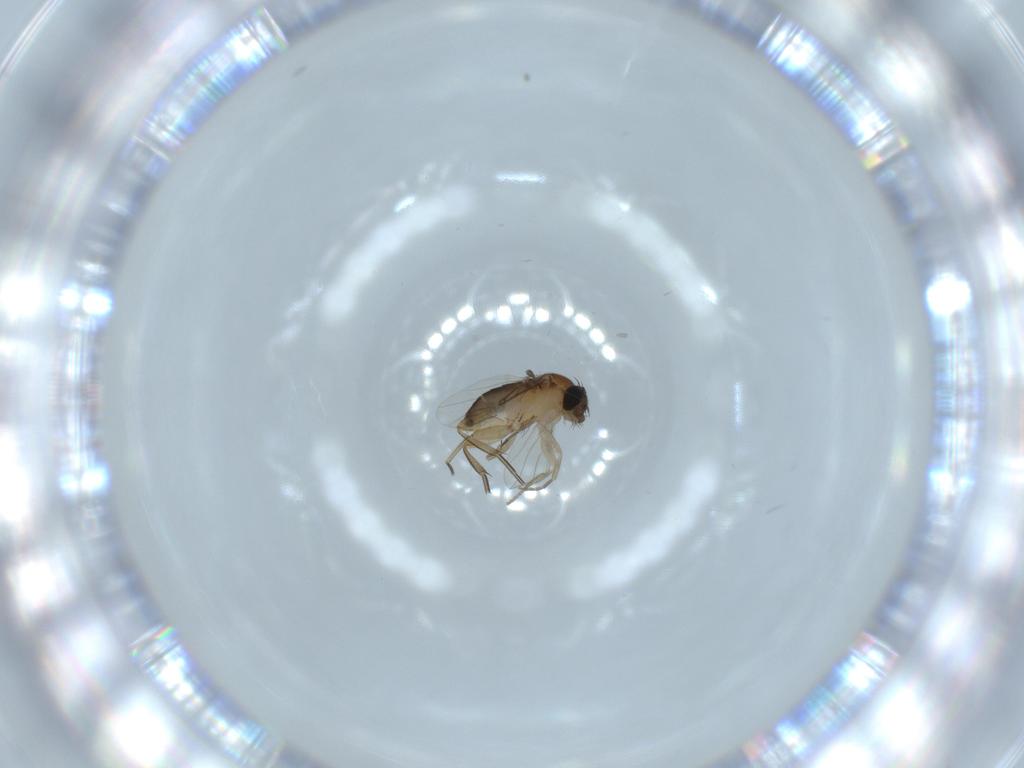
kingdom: Animalia
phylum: Arthropoda
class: Insecta
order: Diptera
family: Phoridae
